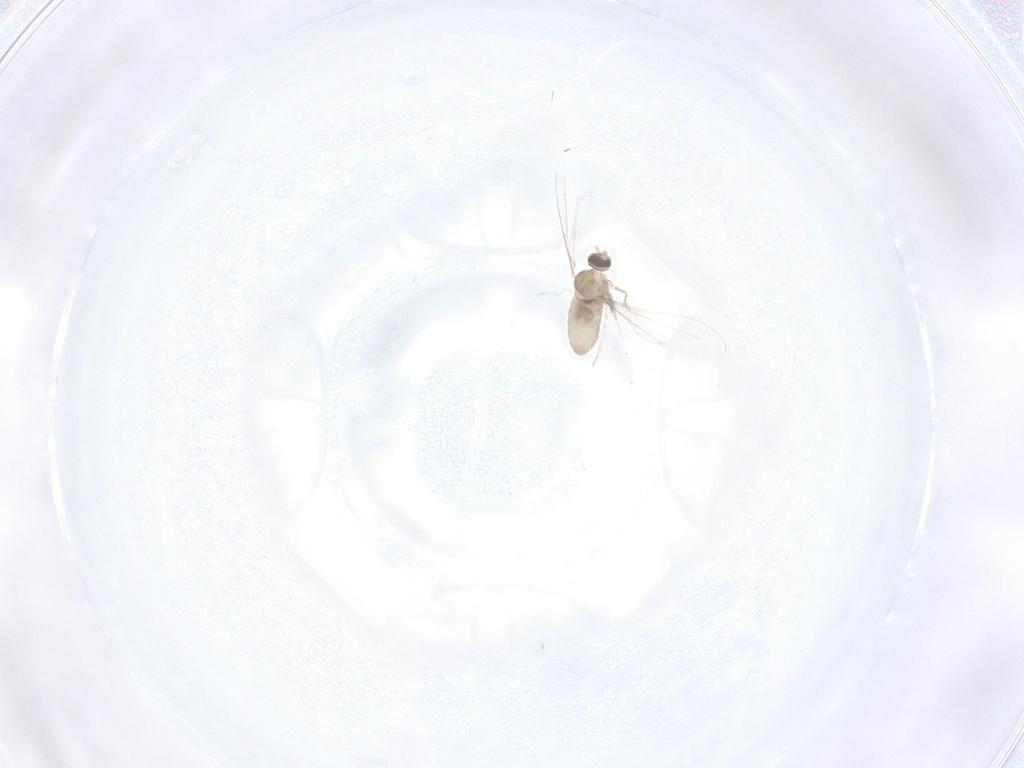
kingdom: Animalia
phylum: Arthropoda
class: Insecta
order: Diptera
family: Cecidomyiidae
